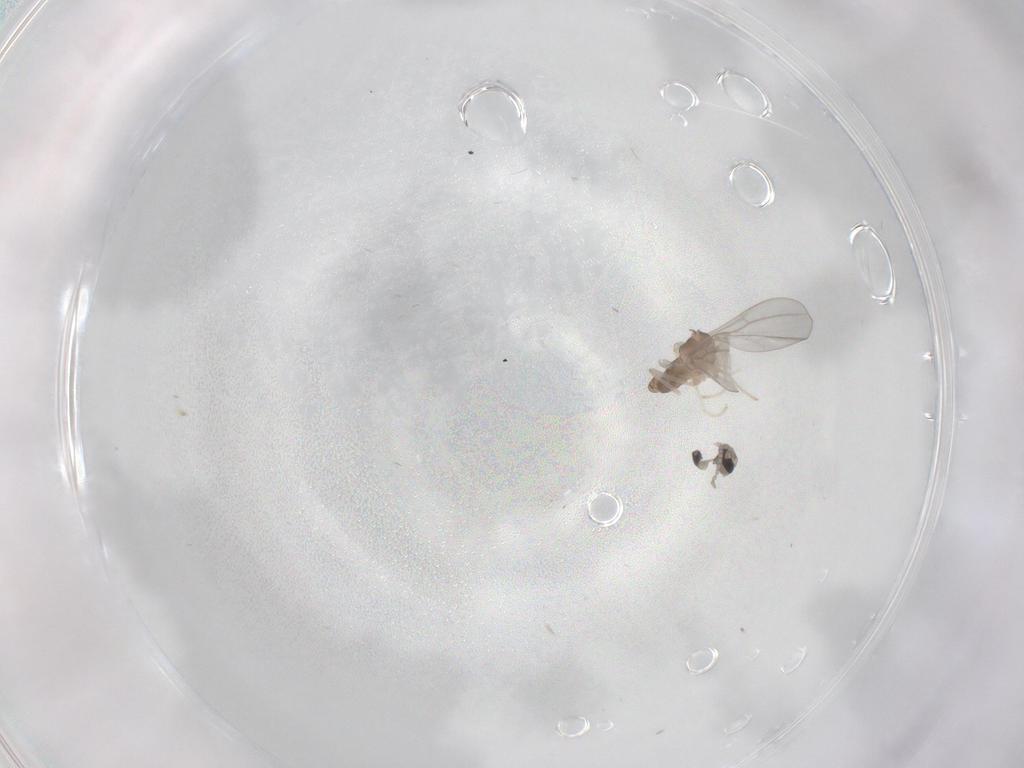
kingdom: Animalia
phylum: Arthropoda
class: Insecta
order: Diptera
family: Cecidomyiidae
